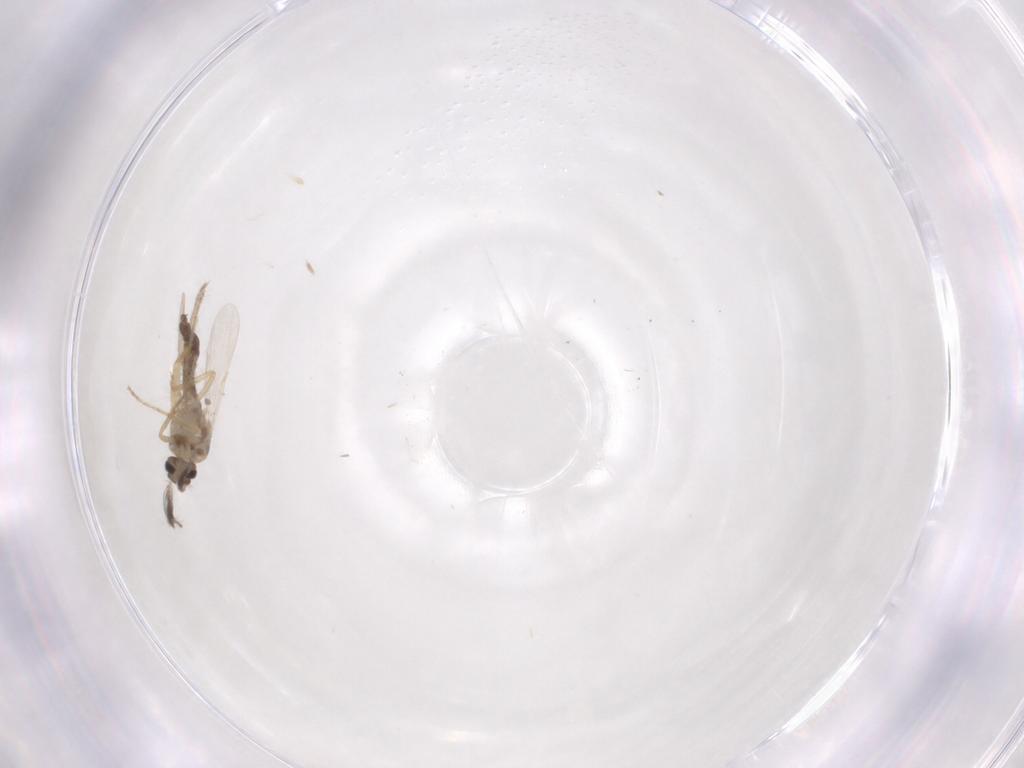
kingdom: Animalia
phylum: Arthropoda
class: Insecta
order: Diptera
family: Sciaridae
